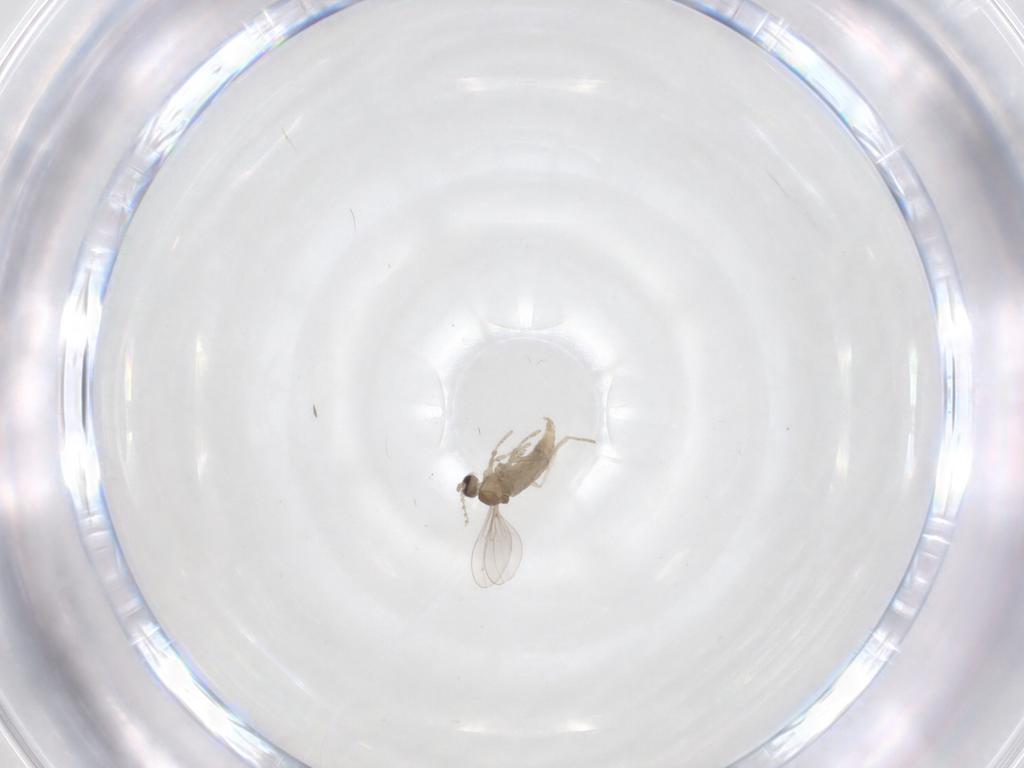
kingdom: Animalia
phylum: Arthropoda
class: Insecta
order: Diptera
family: Cecidomyiidae
